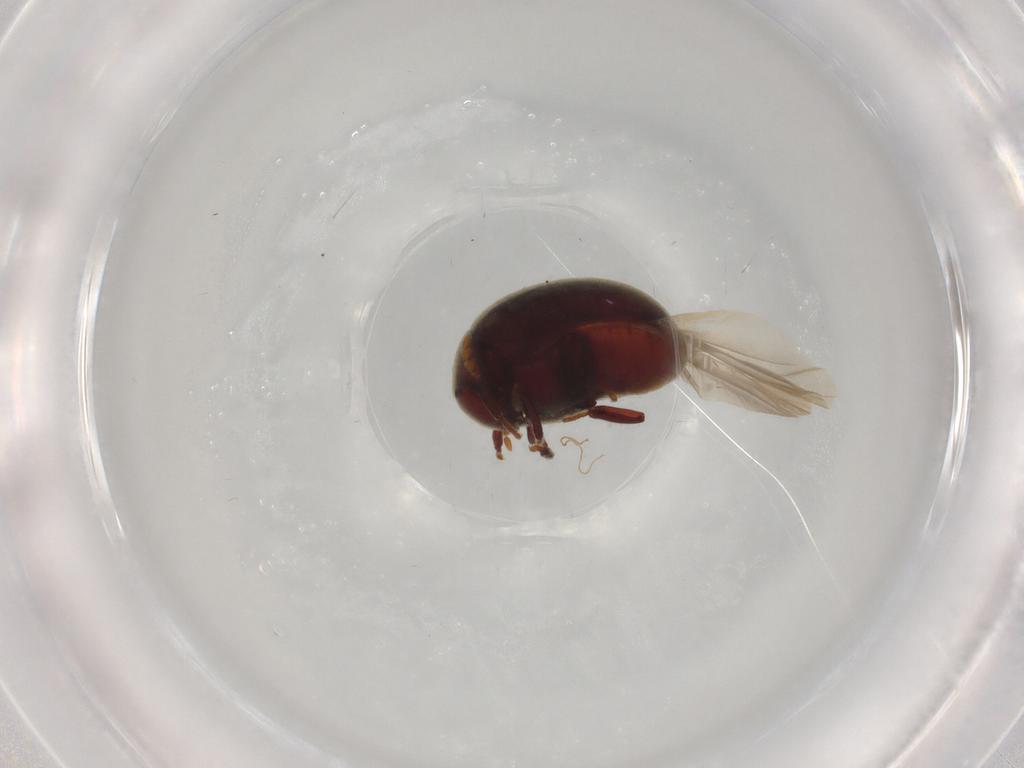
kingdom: Animalia
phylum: Arthropoda
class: Insecta
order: Coleoptera
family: Ptinidae
